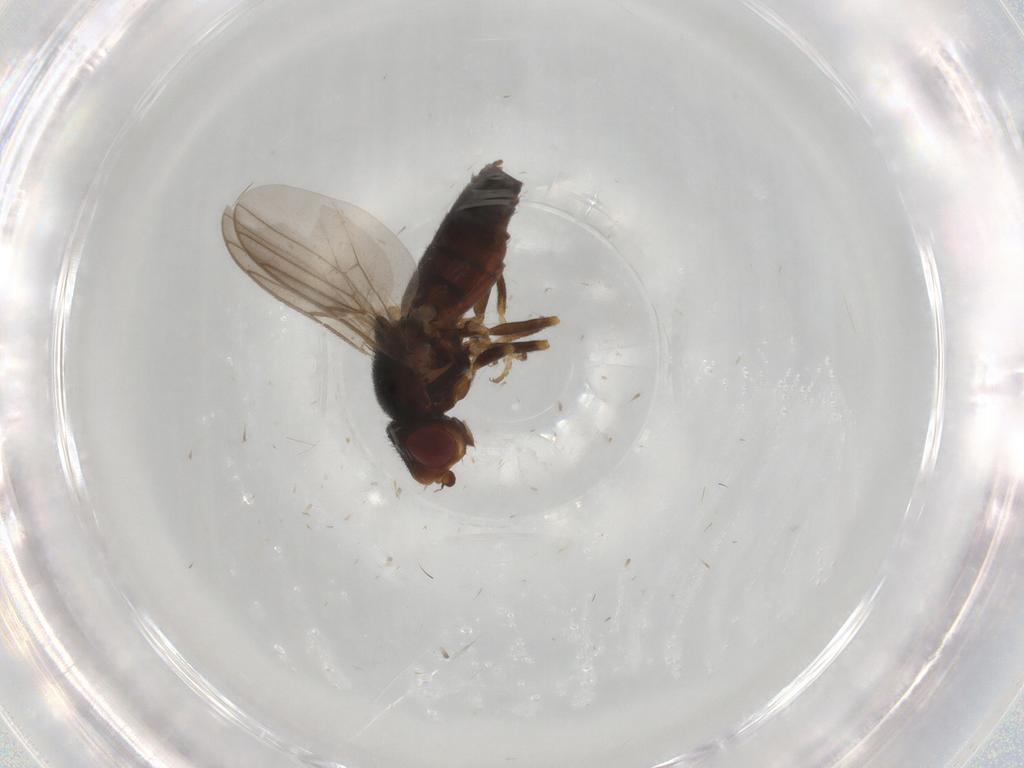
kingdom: Animalia
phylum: Arthropoda
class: Insecta
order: Diptera
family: Chloropidae
